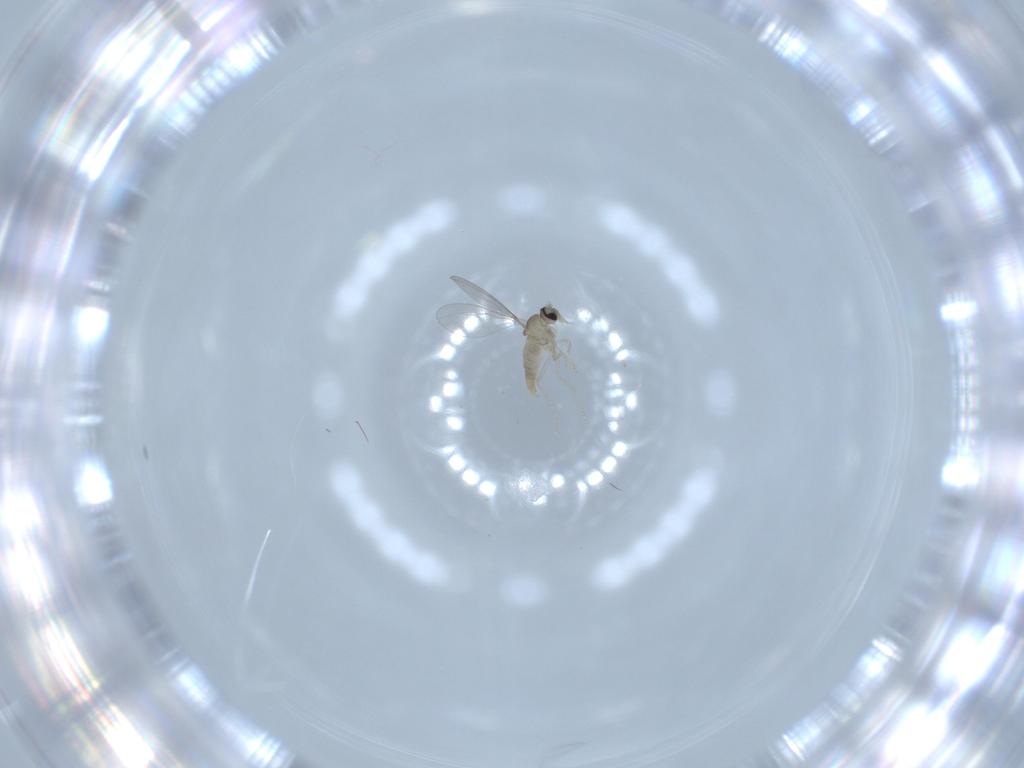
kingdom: Animalia
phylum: Arthropoda
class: Insecta
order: Diptera
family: Cecidomyiidae
